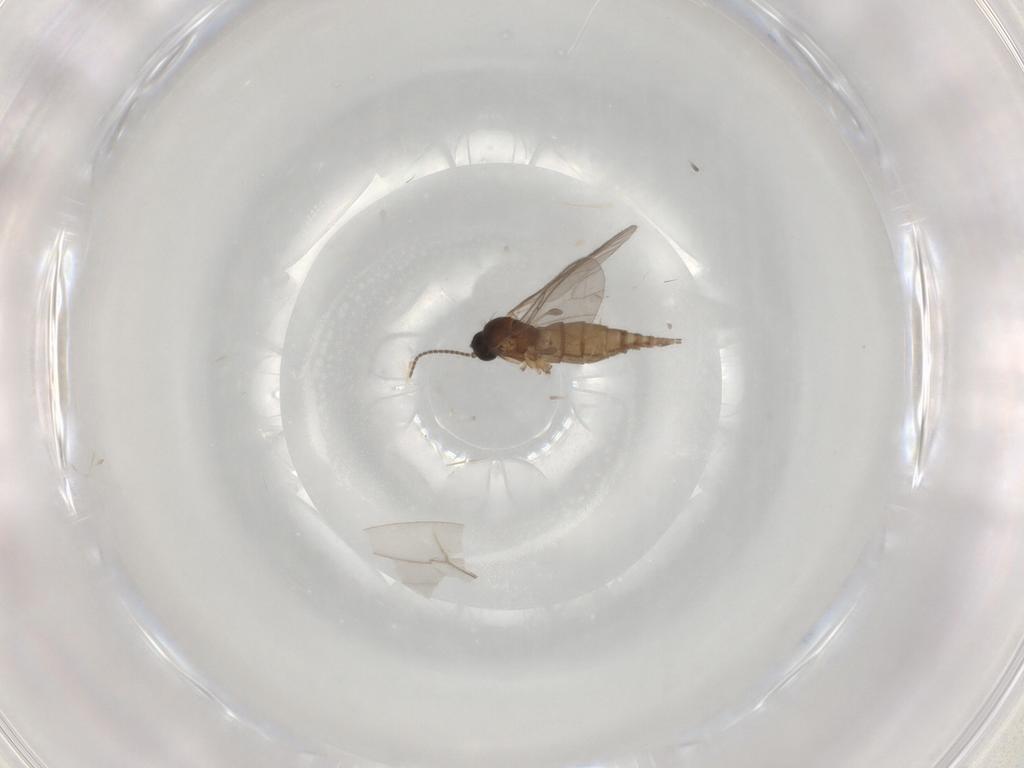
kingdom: Animalia
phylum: Arthropoda
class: Insecta
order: Diptera
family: Sciaridae
